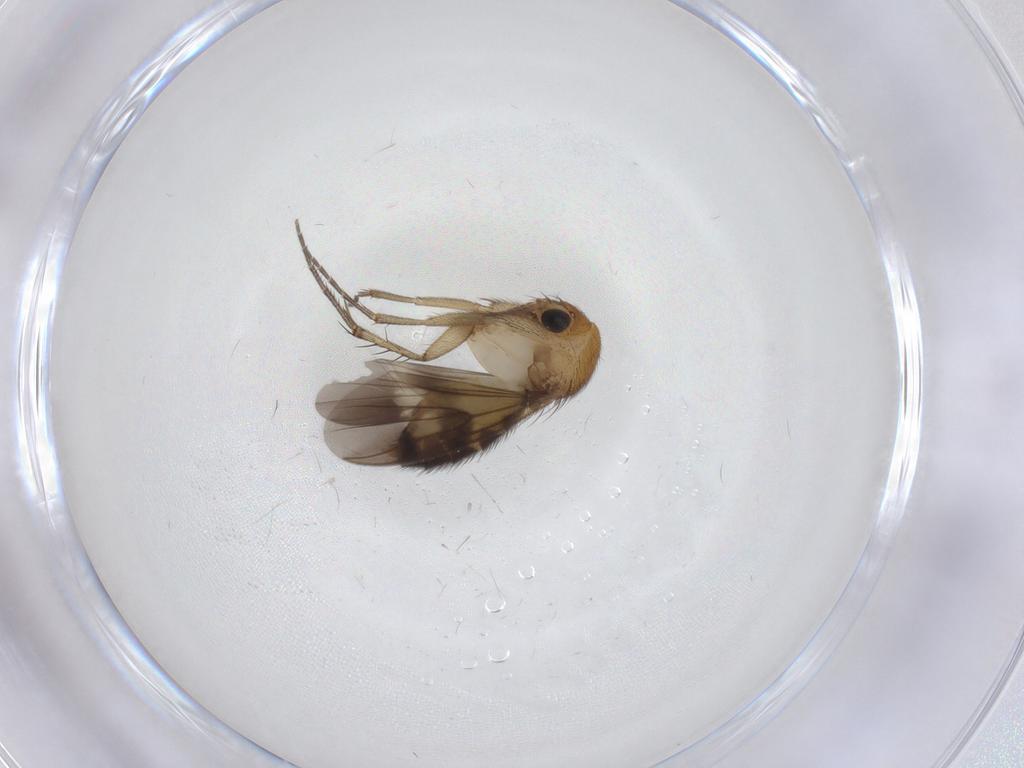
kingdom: Animalia
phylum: Arthropoda
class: Insecta
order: Diptera
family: Mycetophilidae
